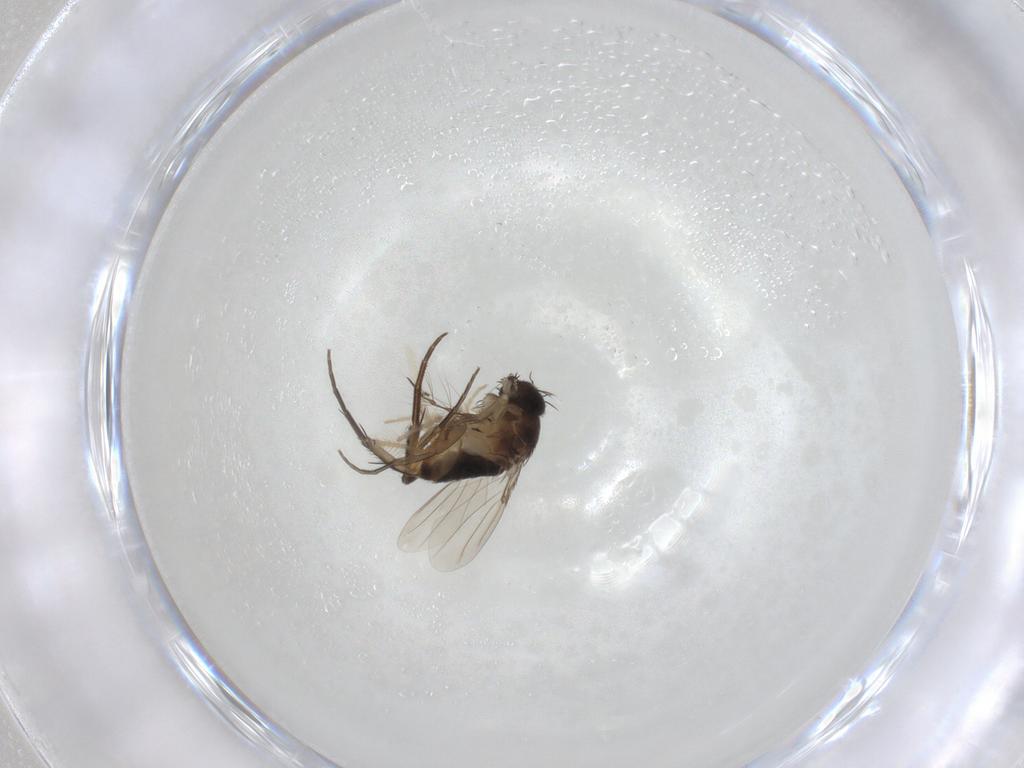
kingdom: Animalia
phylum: Arthropoda
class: Insecta
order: Diptera
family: Phoridae
